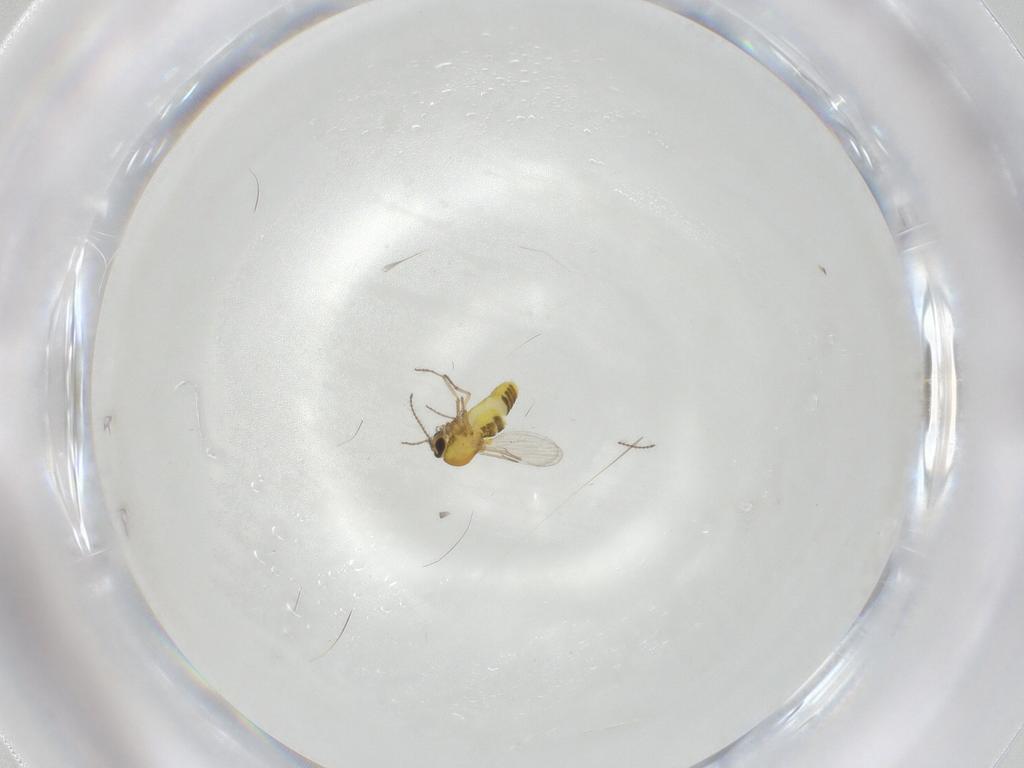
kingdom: Animalia
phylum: Arthropoda
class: Insecta
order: Diptera
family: Ceratopogonidae
